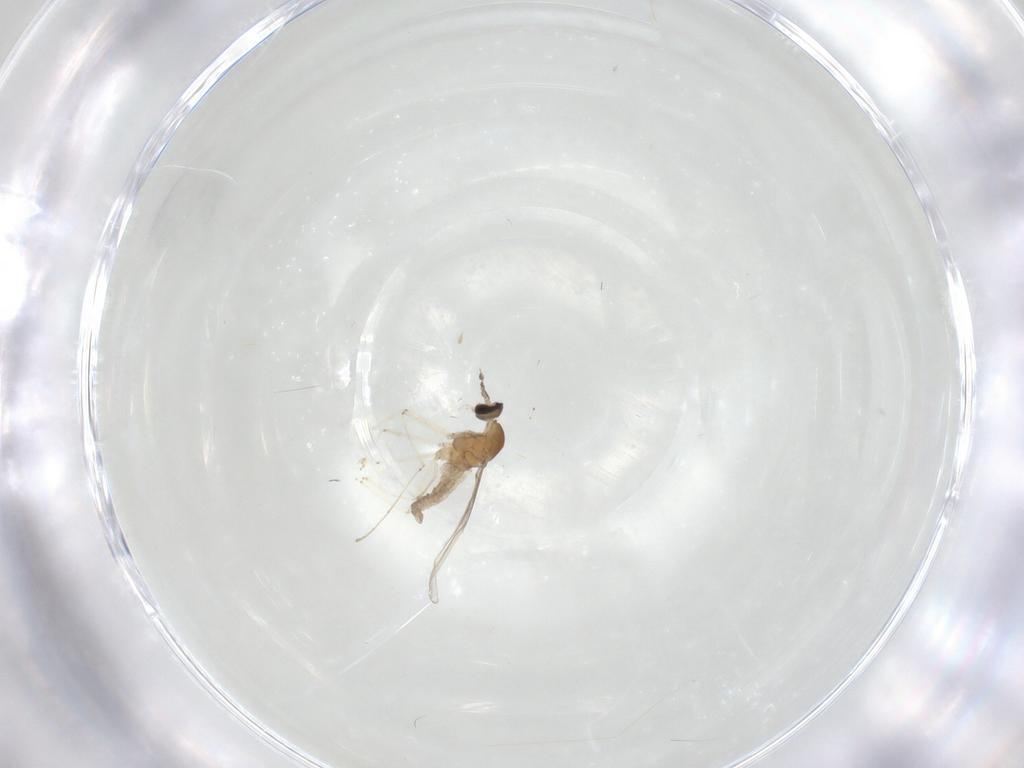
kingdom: Animalia
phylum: Arthropoda
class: Insecta
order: Diptera
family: Cecidomyiidae
